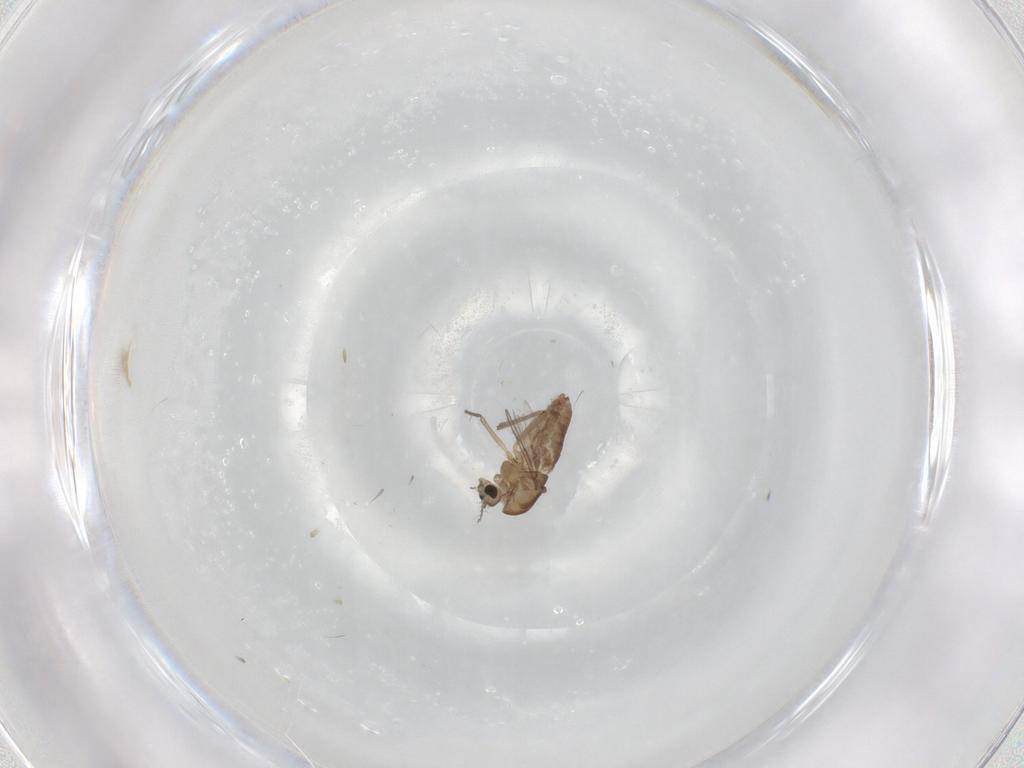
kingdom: Animalia
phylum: Arthropoda
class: Insecta
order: Diptera
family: Chironomidae
